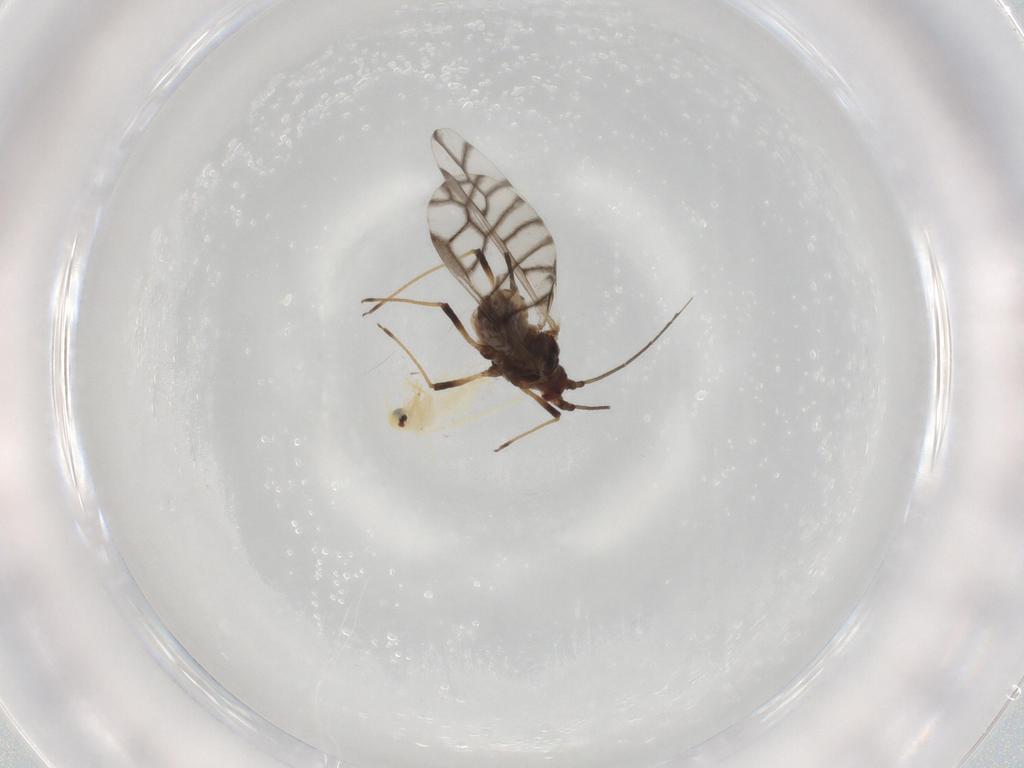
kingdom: Animalia
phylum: Arthropoda
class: Insecta
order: Hemiptera
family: Aphididae
